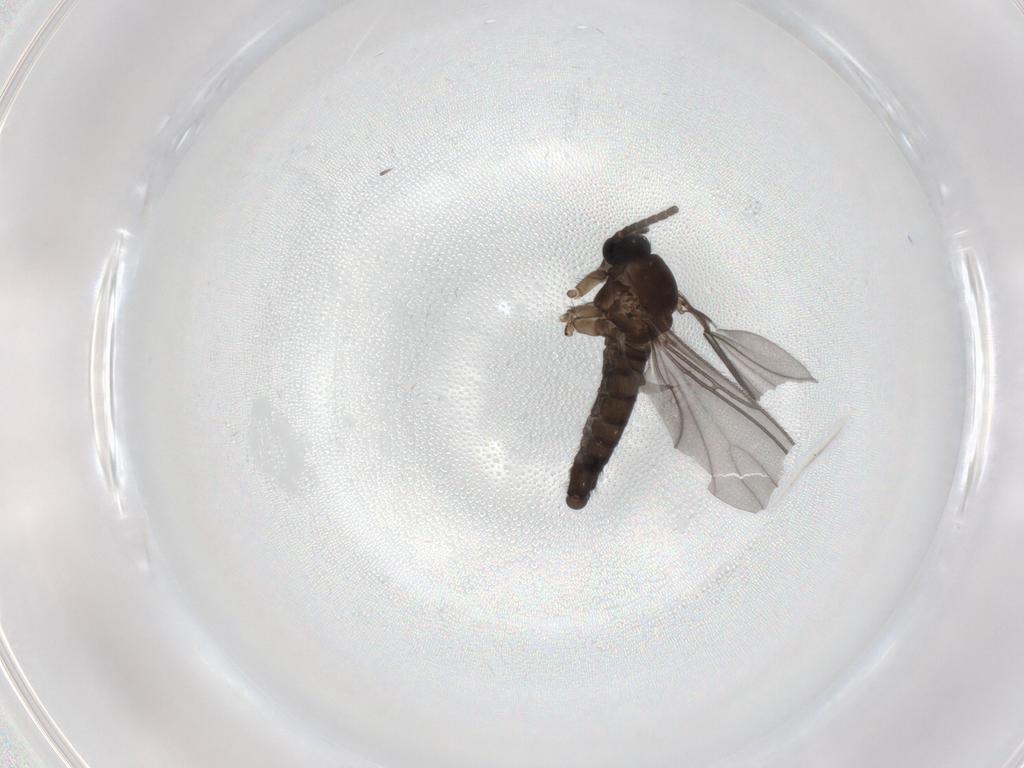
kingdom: Animalia
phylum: Arthropoda
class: Insecta
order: Diptera
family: Sciaridae
